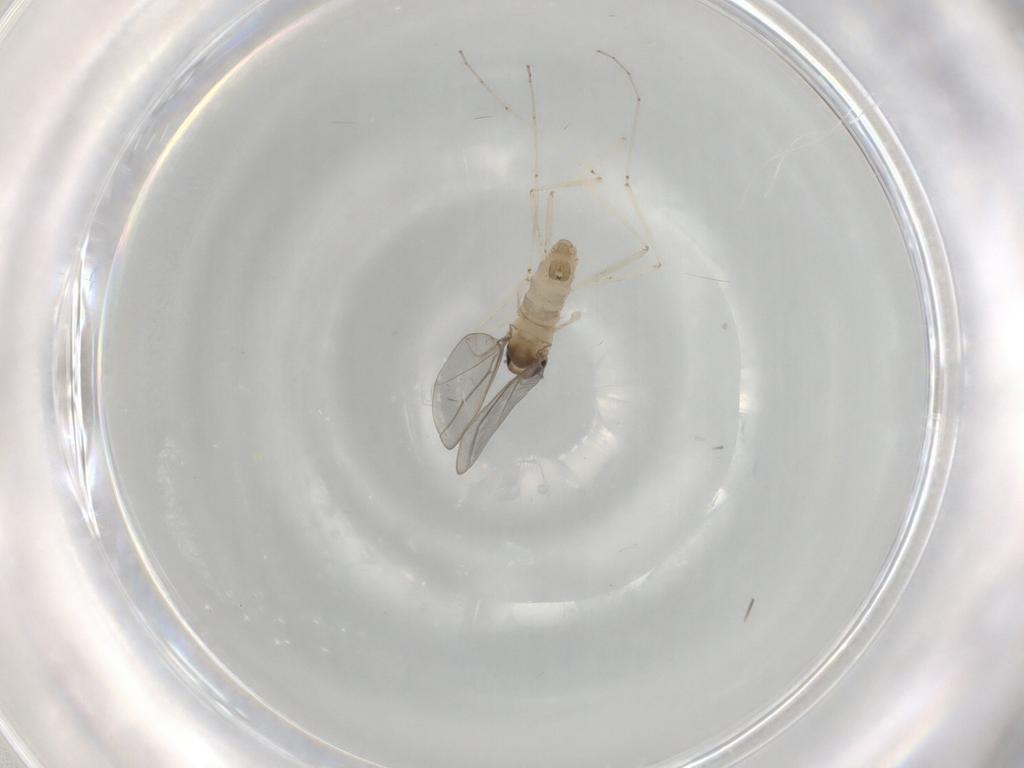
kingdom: Animalia
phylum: Arthropoda
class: Insecta
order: Diptera
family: Cecidomyiidae
